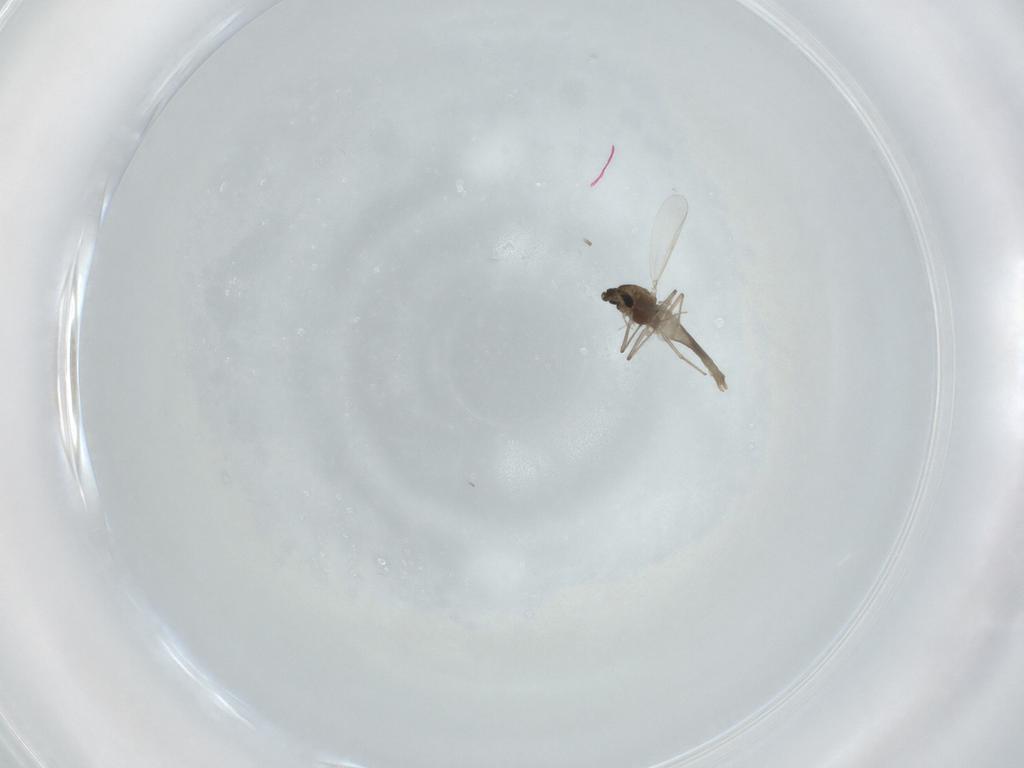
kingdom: Animalia
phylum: Arthropoda
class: Insecta
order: Diptera
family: Chironomidae
